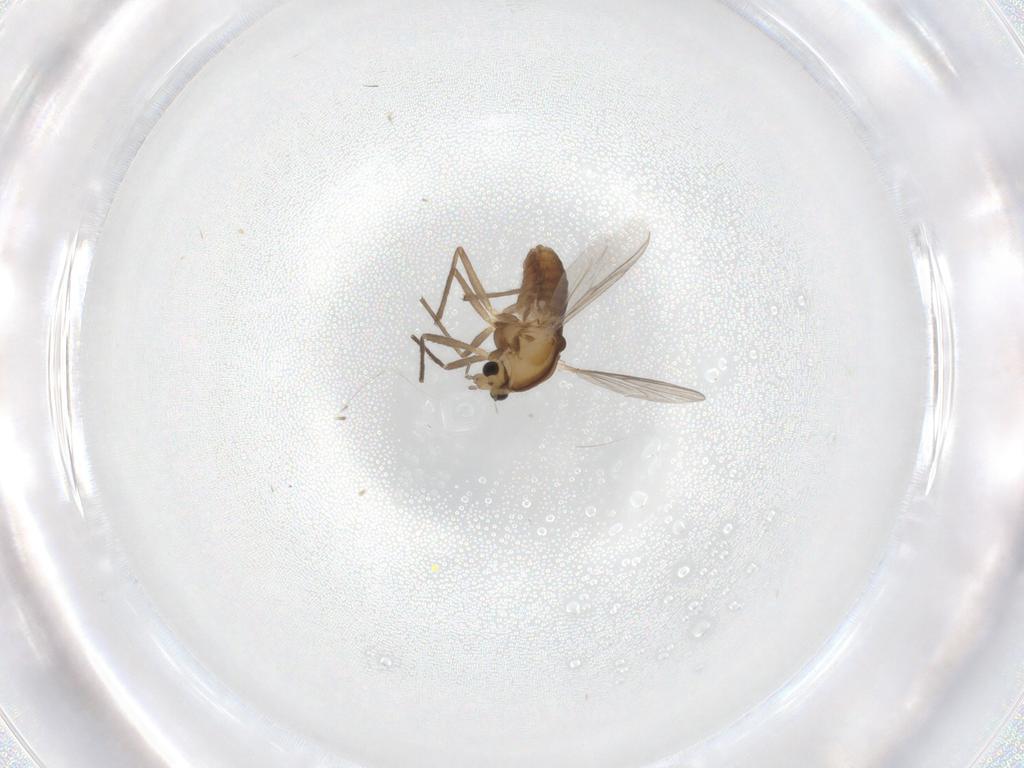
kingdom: Animalia
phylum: Arthropoda
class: Insecta
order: Diptera
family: Chironomidae
